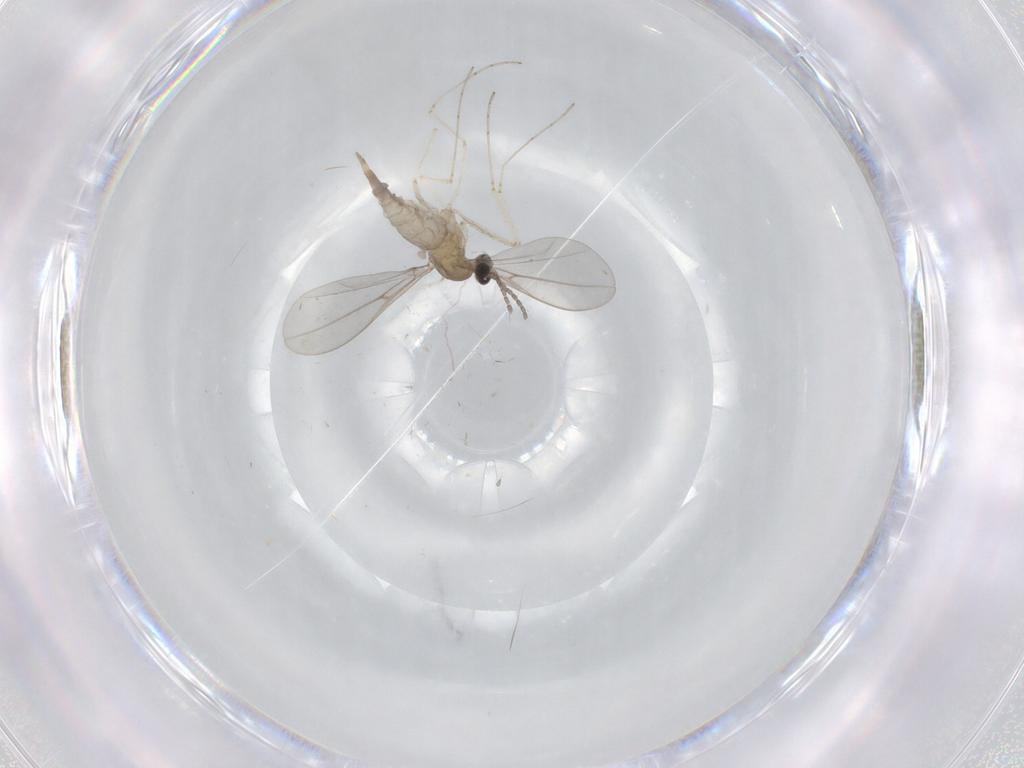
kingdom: Animalia
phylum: Arthropoda
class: Insecta
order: Diptera
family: Cecidomyiidae
